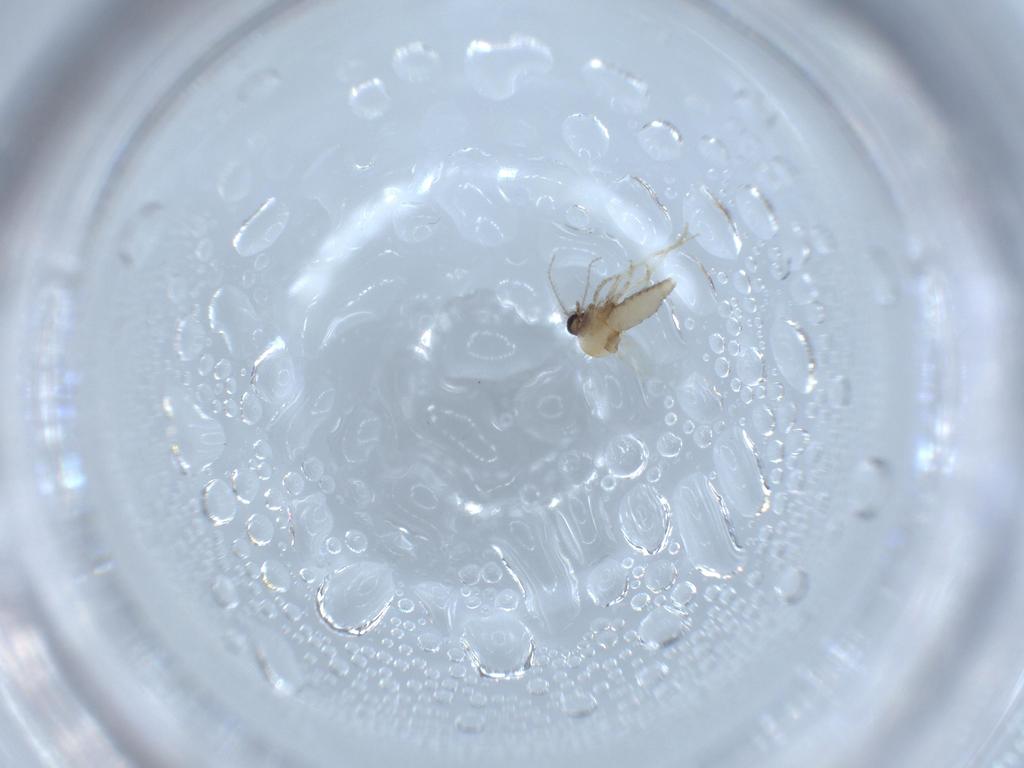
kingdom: Animalia
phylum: Arthropoda
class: Insecta
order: Diptera
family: Ceratopogonidae
